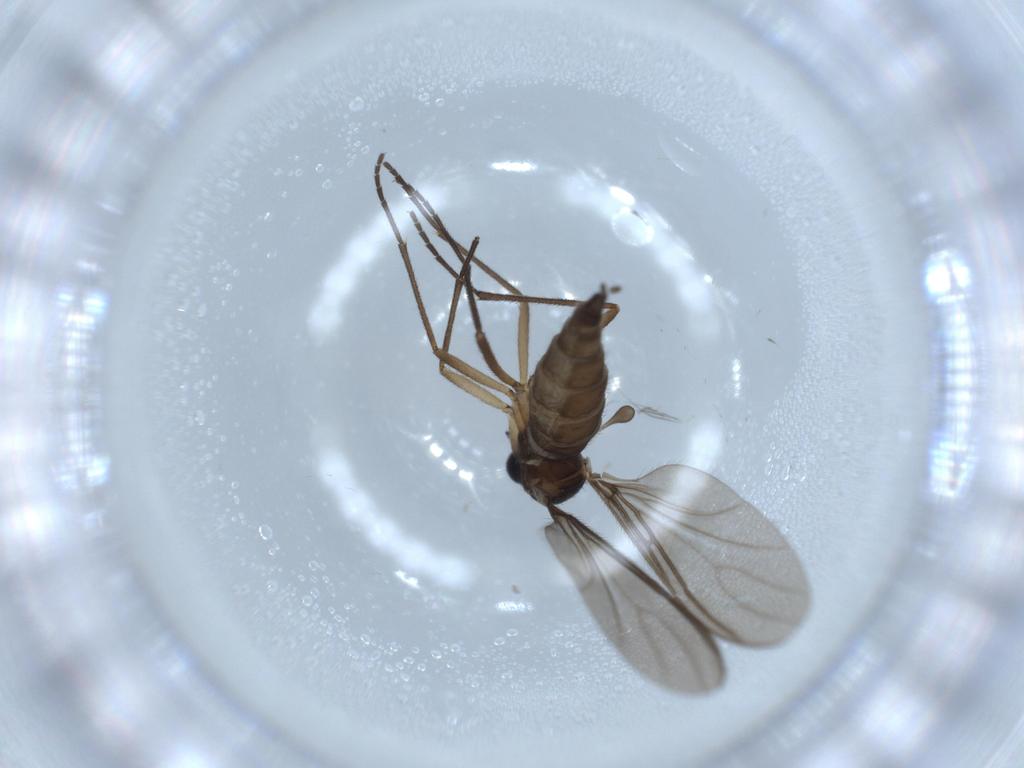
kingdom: Animalia
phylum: Arthropoda
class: Insecta
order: Diptera
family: Sciaridae
